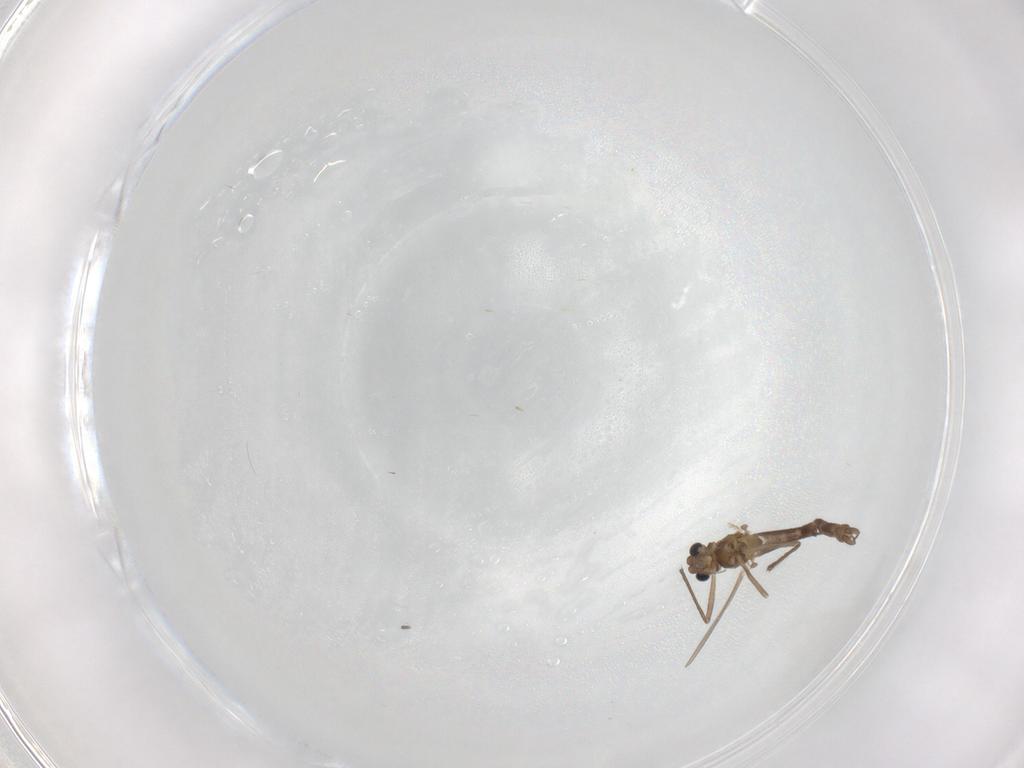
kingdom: Animalia
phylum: Arthropoda
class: Insecta
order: Diptera
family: Chironomidae
